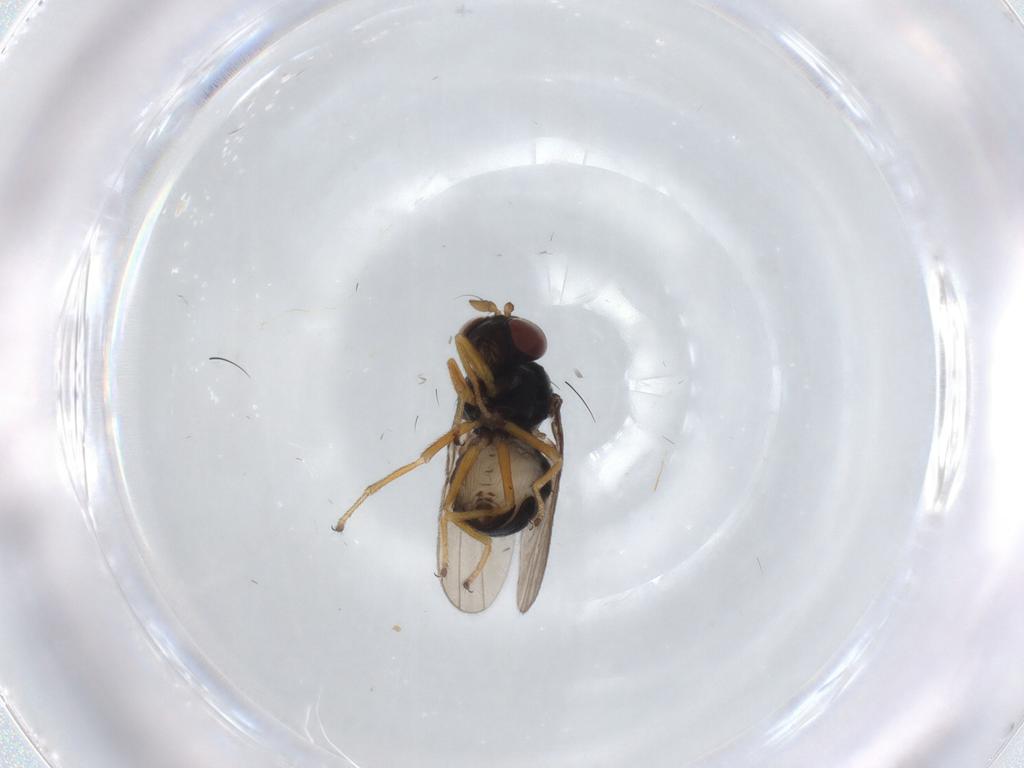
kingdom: Animalia
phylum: Arthropoda
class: Insecta
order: Diptera
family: Ephydridae
